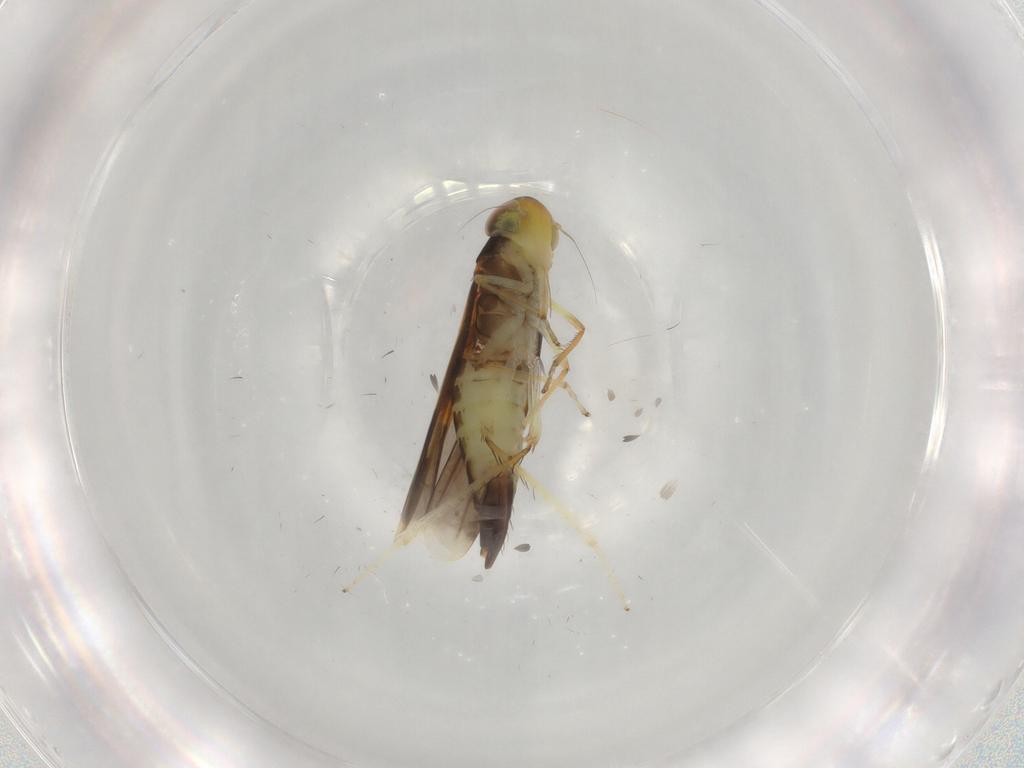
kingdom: Animalia
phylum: Arthropoda
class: Insecta
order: Hemiptera
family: Cicadellidae
